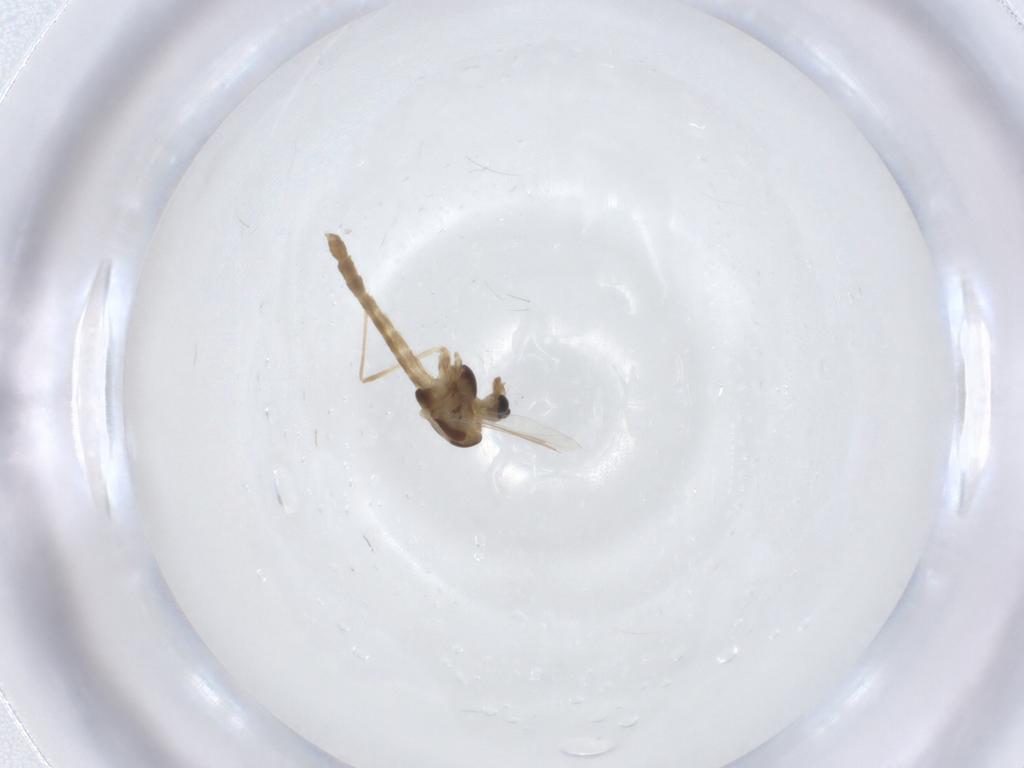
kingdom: Animalia
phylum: Arthropoda
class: Insecta
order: Diptera
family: Chironomidae
